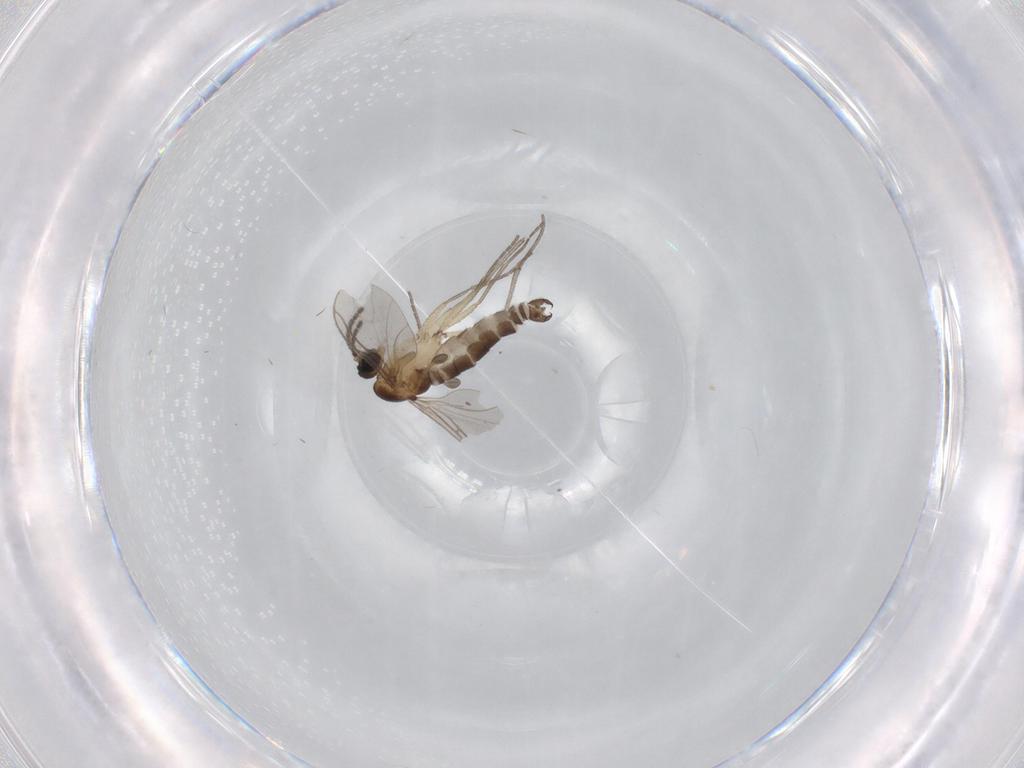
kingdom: Animalia
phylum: Arthropoda
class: Insecta
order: Diptera
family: Sciaridae
